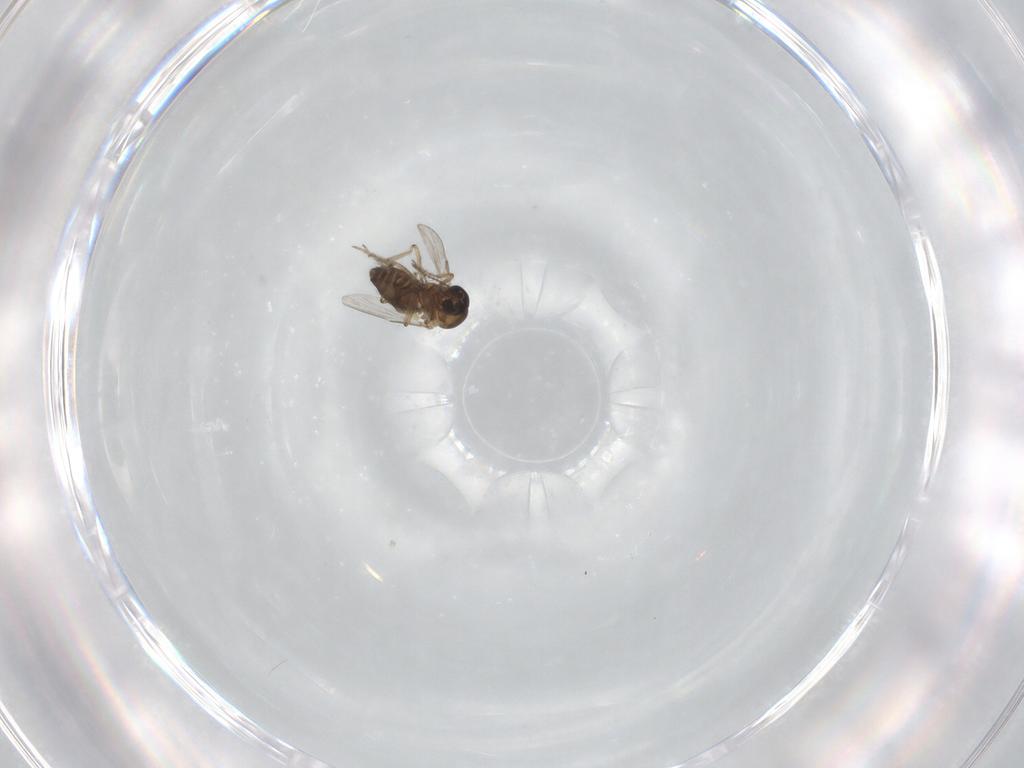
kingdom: Animalia
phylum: Arthropoda
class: Insecta
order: Diptera
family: Ceratopogonidae
